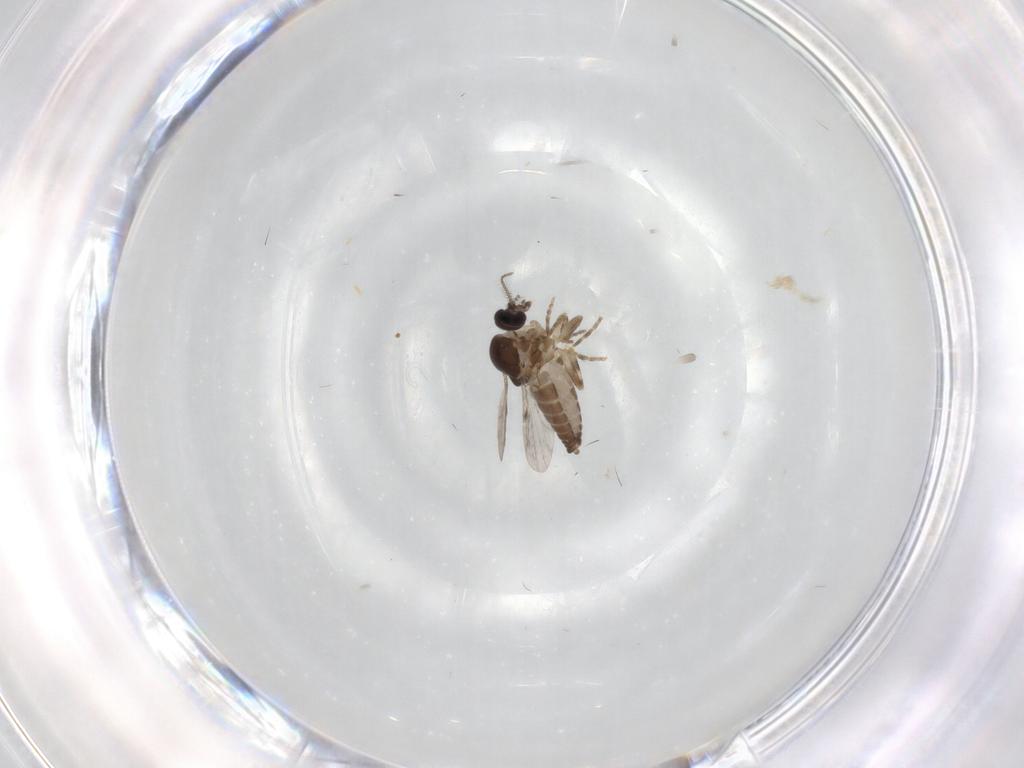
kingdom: Animalia
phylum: Arthropoda
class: Insecta
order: Diptera
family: Ceratopogonidae
